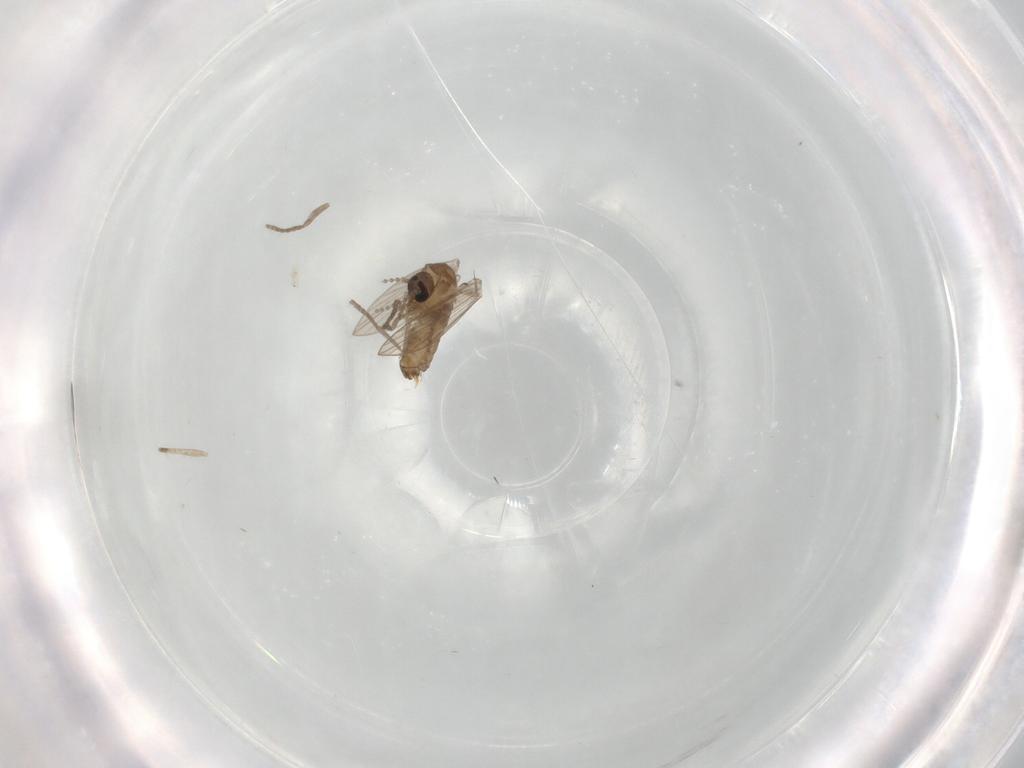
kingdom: Animalia
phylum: Arthropoda
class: Insecta
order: Diptera
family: Psychodidae
